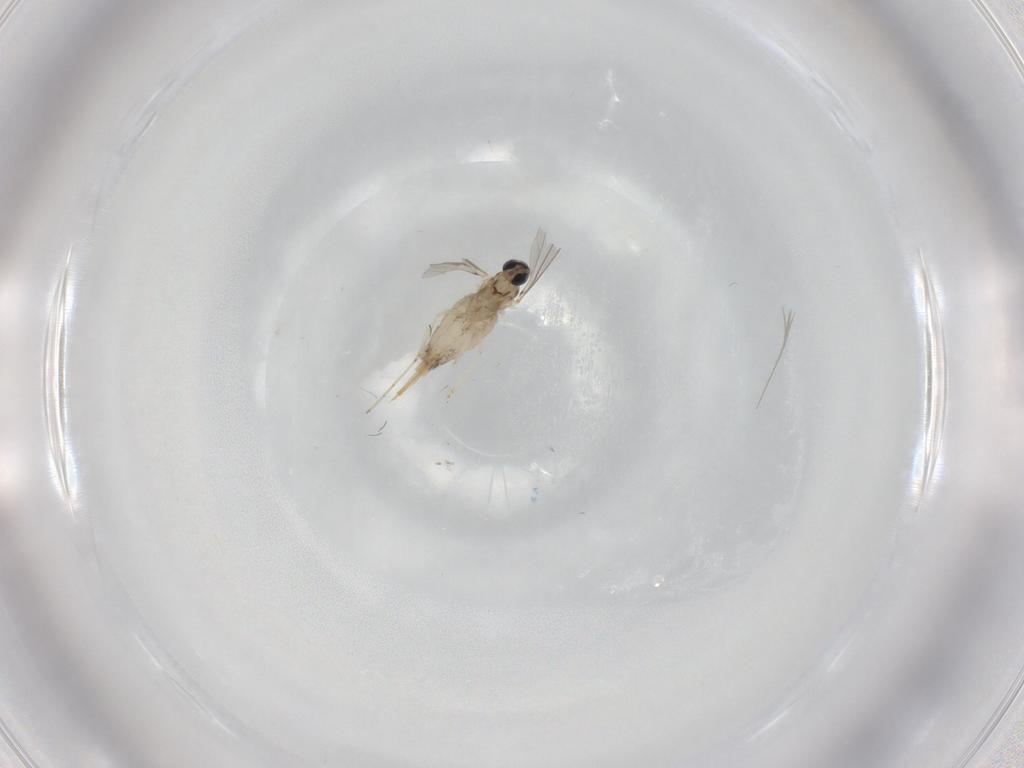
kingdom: Animalia
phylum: Arthropoda
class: Insecta
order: Diptera
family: Cecidomyiidae
